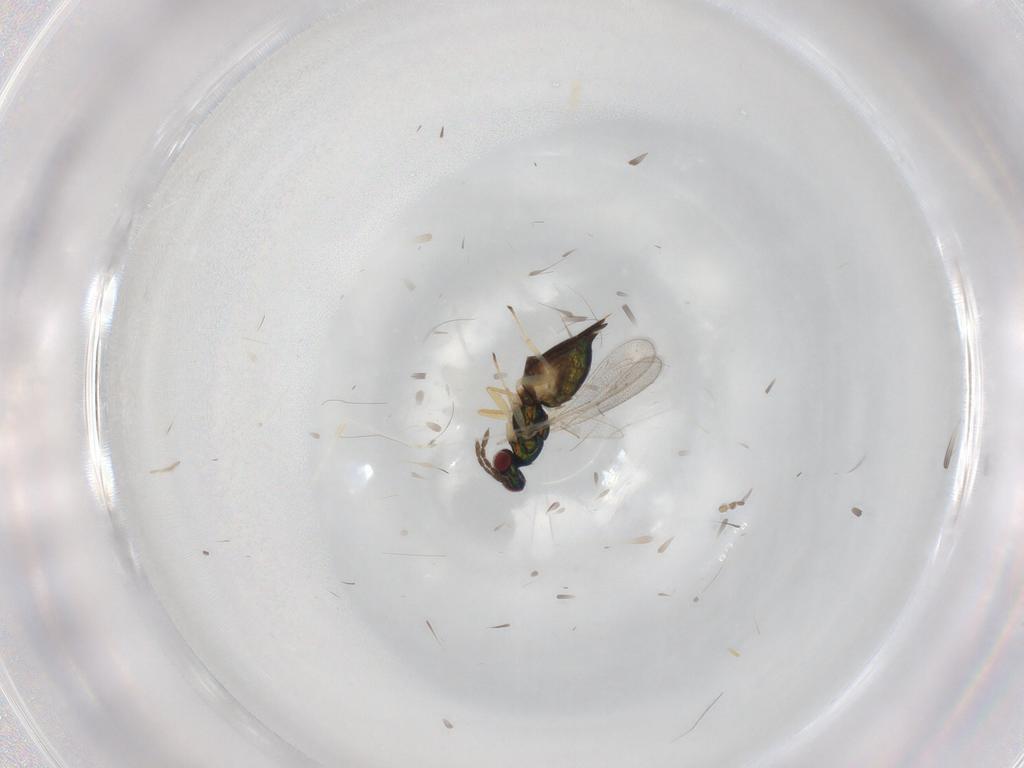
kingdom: Animalia
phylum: Arthropoda
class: Insecta
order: Hymenoptera
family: Eulophidae
